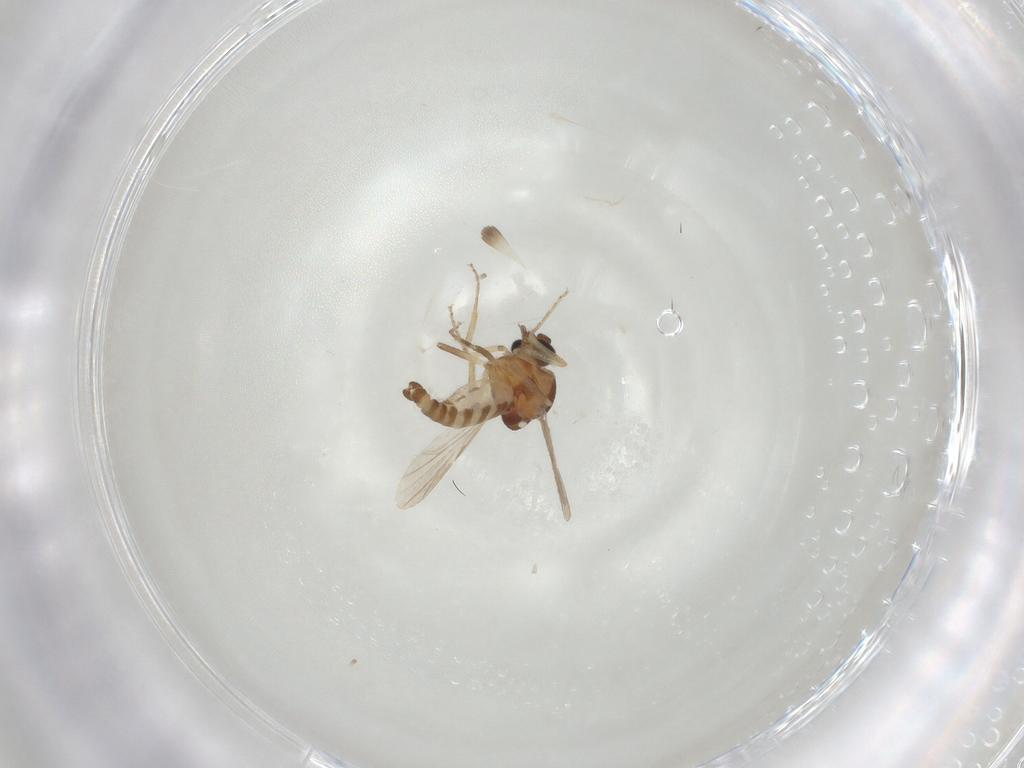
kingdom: Animalia
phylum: Arthropoda
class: Insecta
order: Diptera
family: Ceratopogonidae
